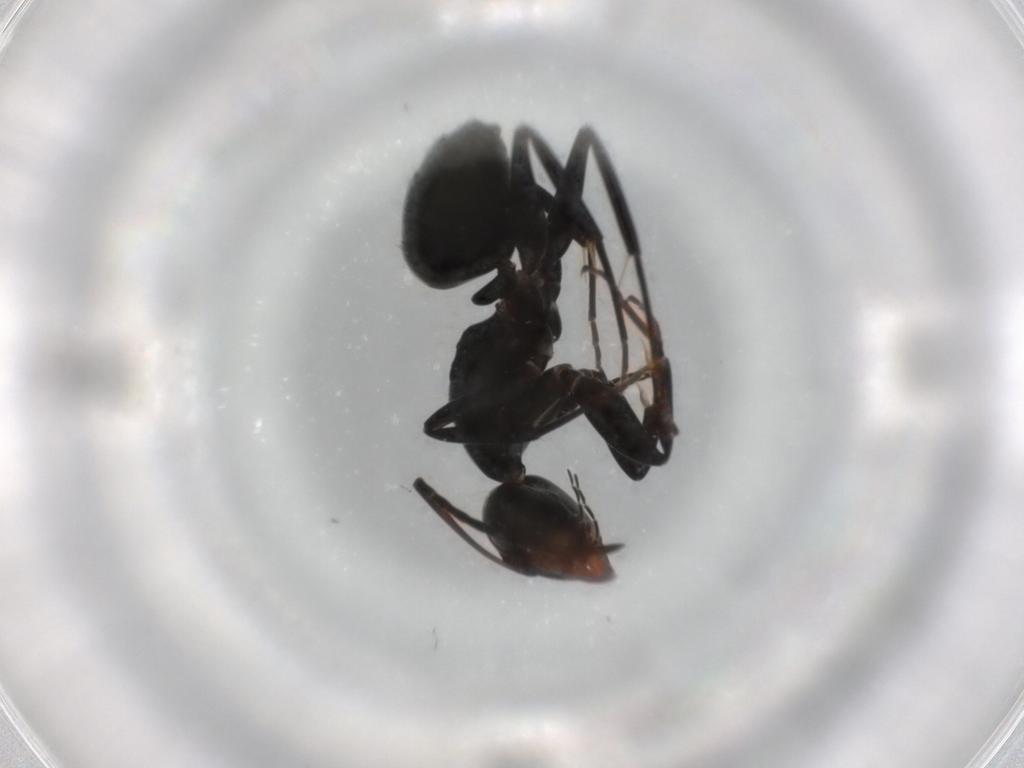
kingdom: Animalia
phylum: Arthropoda
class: Insecta
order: Hymenoptera
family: Formicidae
